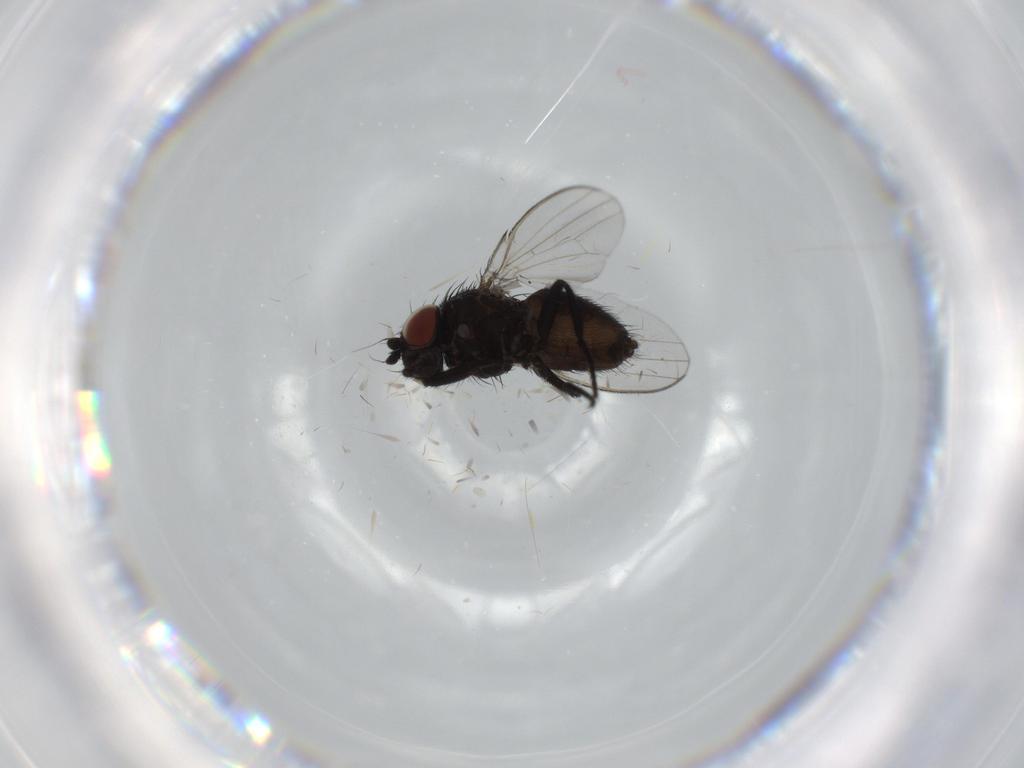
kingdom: Animalia
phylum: Arthropoda
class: Insecta
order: Diptera
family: Milichiidae
